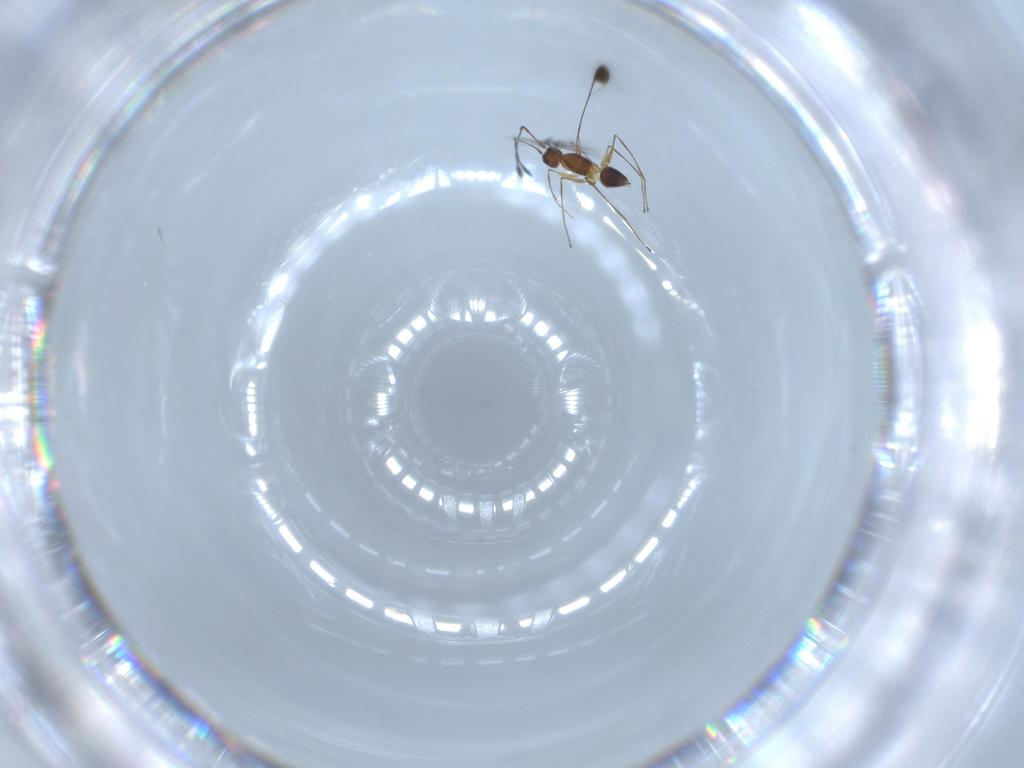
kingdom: Animalia
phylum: Arthropoda
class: Insecta
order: Hymenoptera
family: Mymaridae
